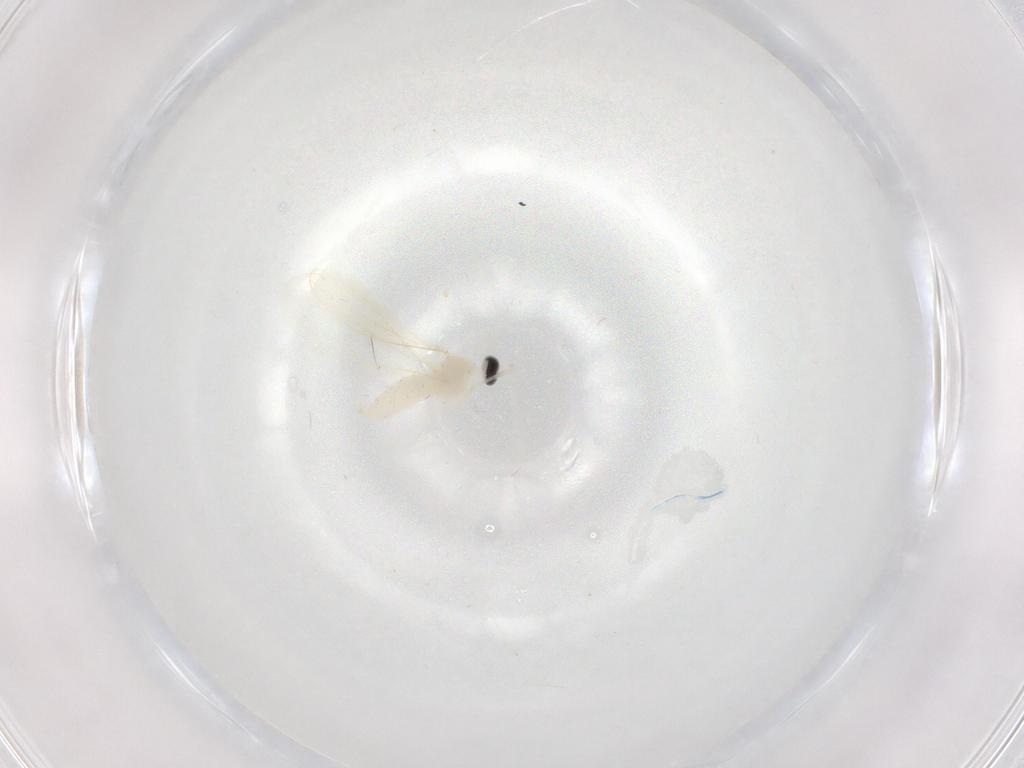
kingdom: Animalia
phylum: Arthropoda
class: Insecta
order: Diptera
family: Cecidomyiidae
